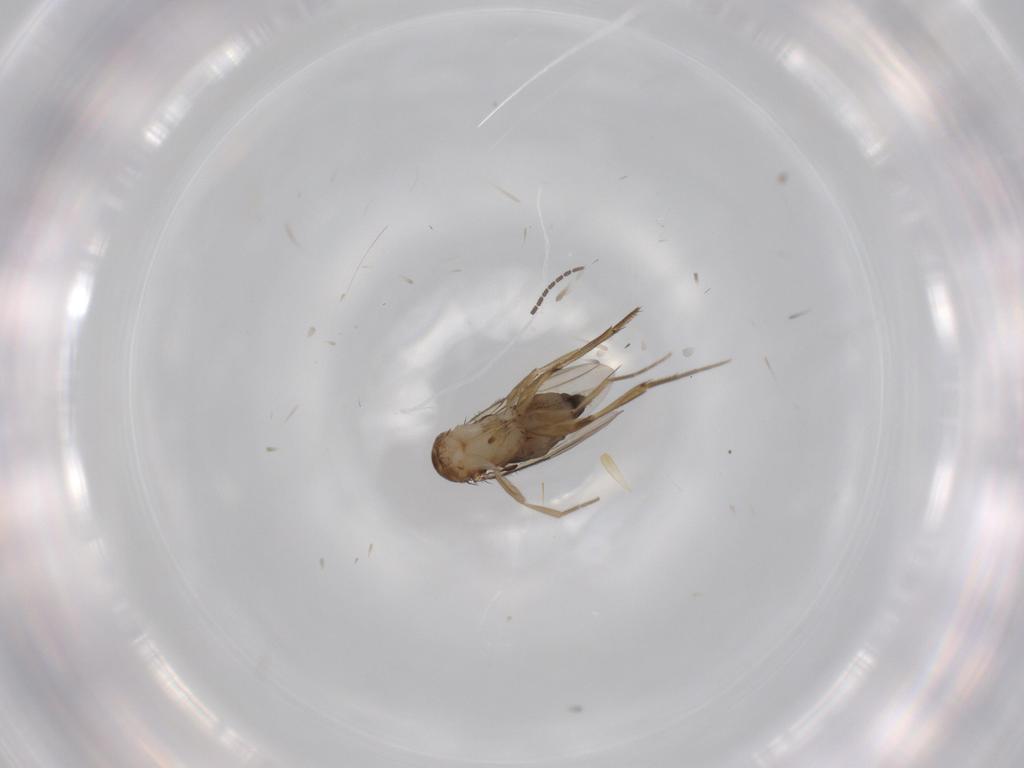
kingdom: Animalia
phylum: Arthropoda
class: Insecta
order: Diptera
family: Phoridae
